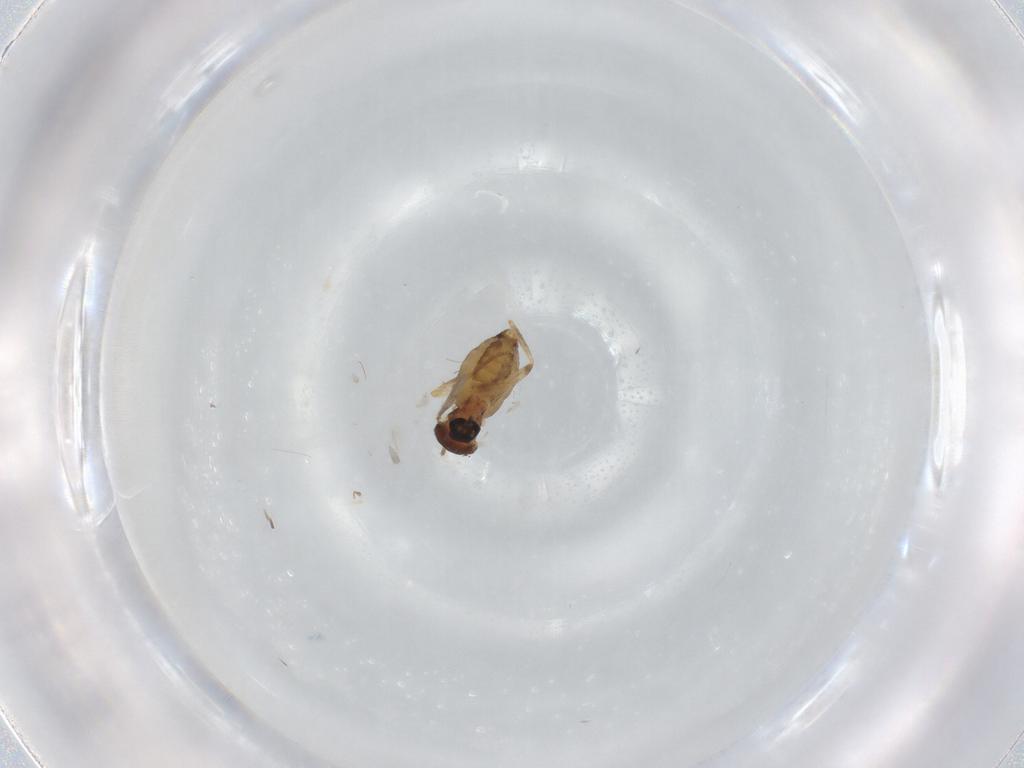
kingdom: Animalia
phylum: Arthropoda
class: Insecta
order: Diptera
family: Ceratopogonidae
